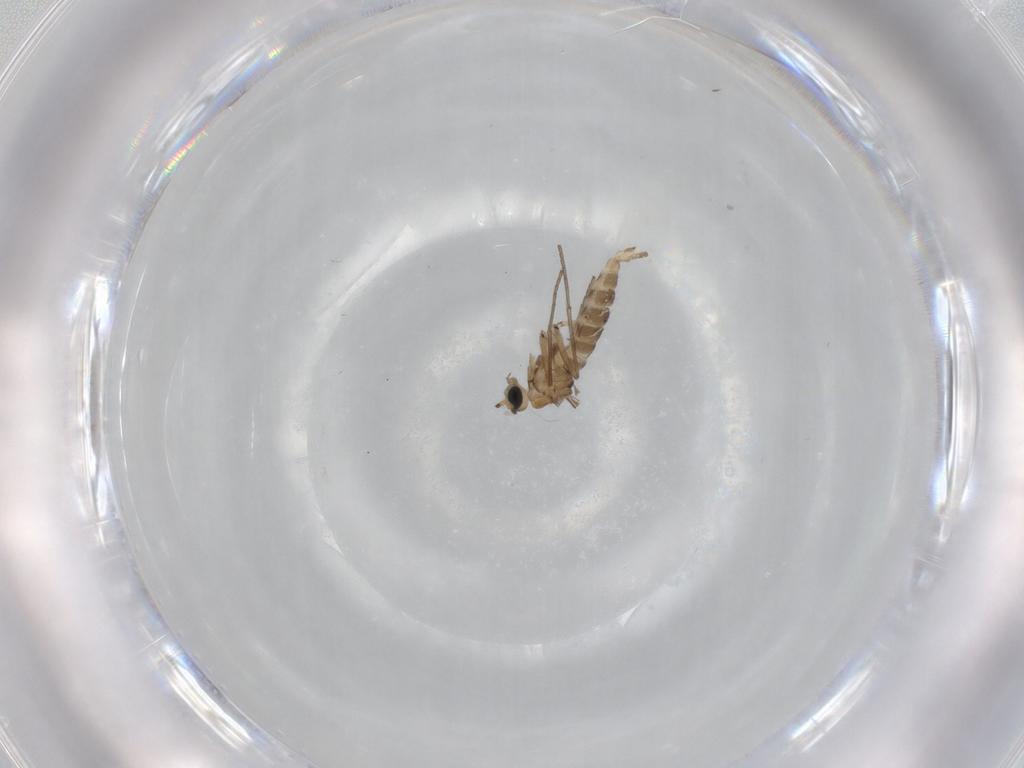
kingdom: Animalia
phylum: Arthropoda
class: Insecta
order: Diptera
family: Sciaridae
